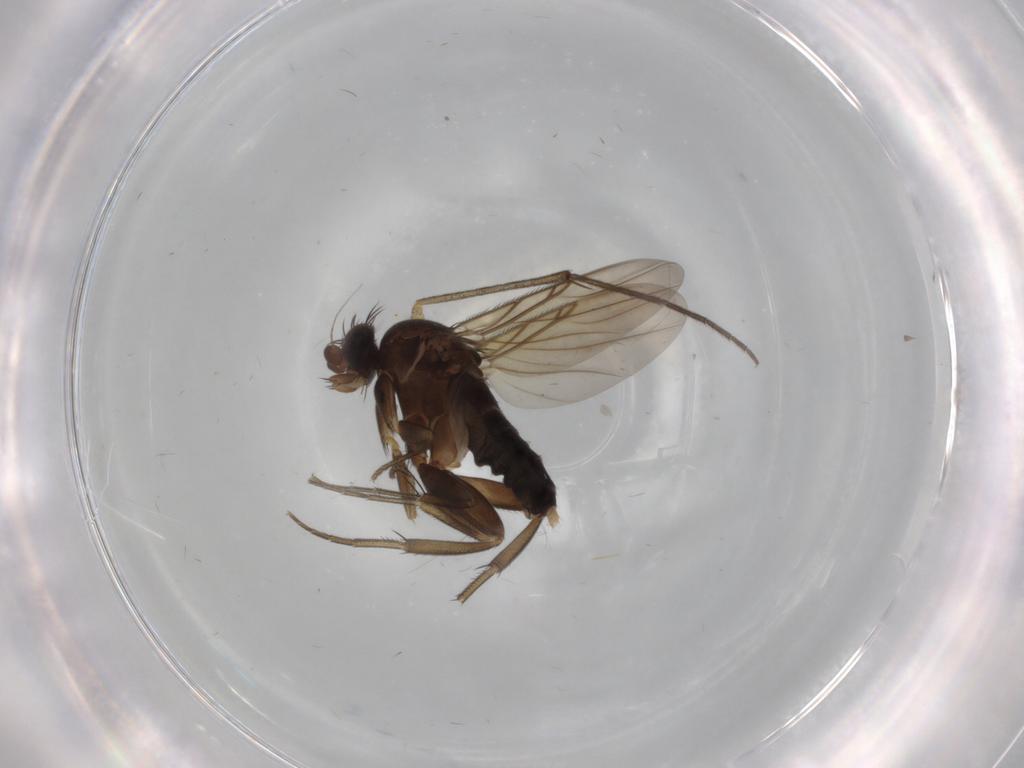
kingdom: Animalia
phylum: Arthropoda
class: Insecta
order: Diptera
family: Phoridae
